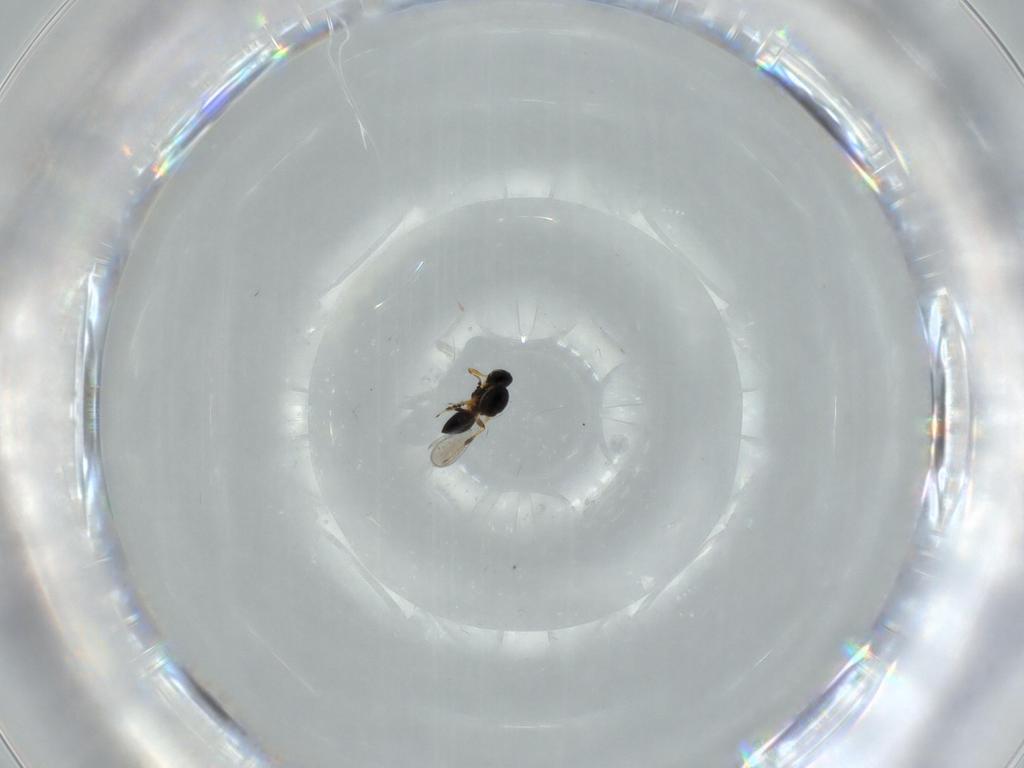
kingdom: Animalia
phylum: Arthropoda
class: Insecta
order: Hymenoptera
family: Platygastridae
